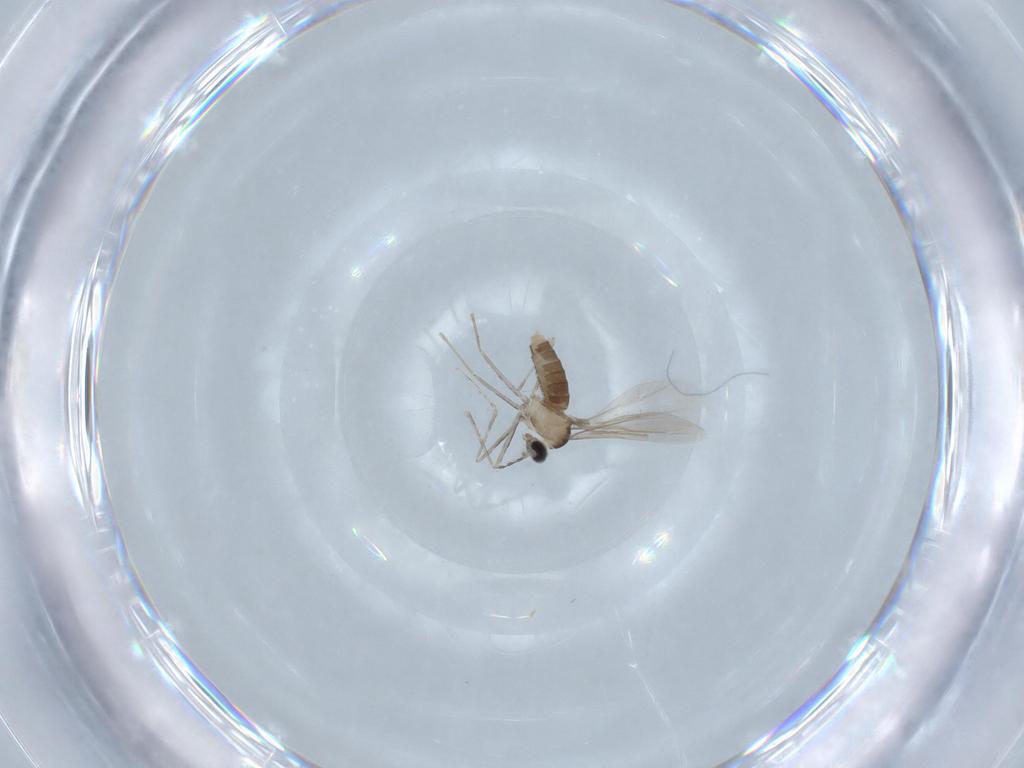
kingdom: Animalia
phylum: Arthropoda
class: Insecta
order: Diptera
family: Cecidomyiidae
